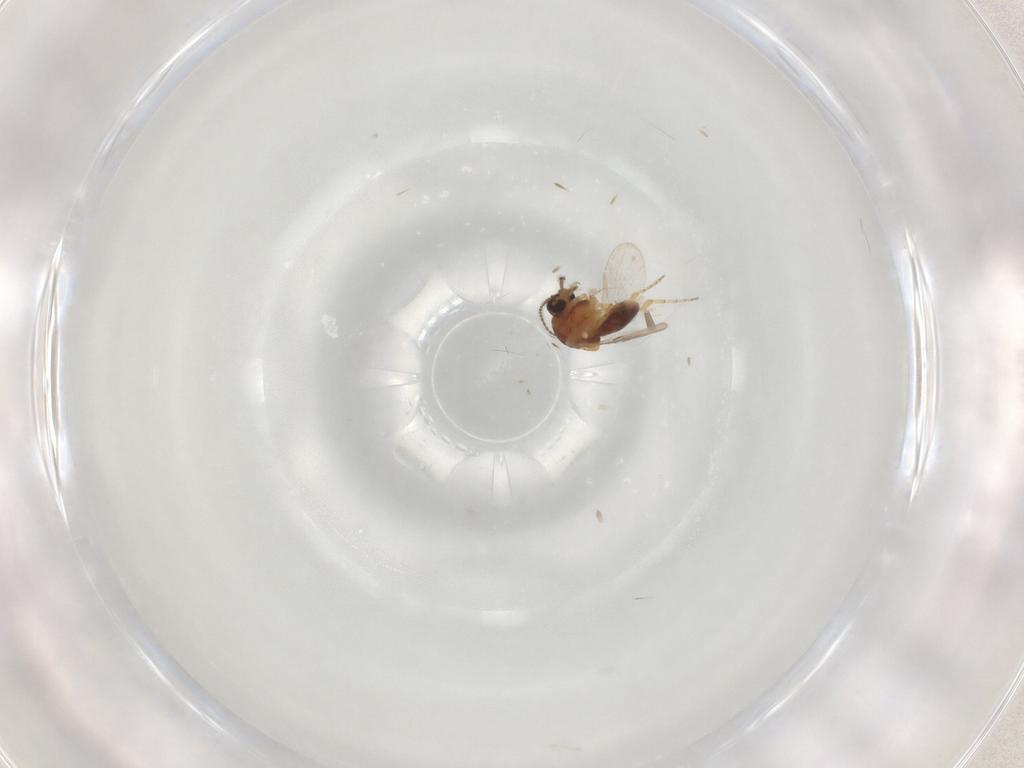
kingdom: Animalia
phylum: Arthropoda
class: Insecta
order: Diptera
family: Ceratopogonidae
